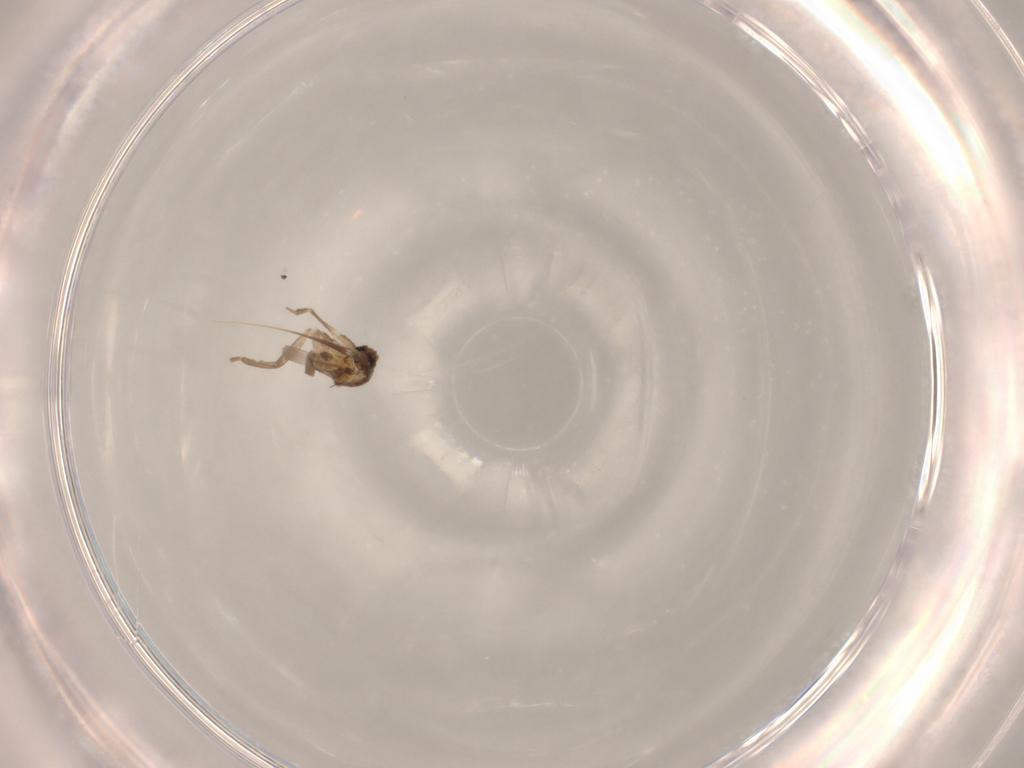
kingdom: Animalia
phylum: Arthropoda
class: Insecta
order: Diptera
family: Psychodidae
